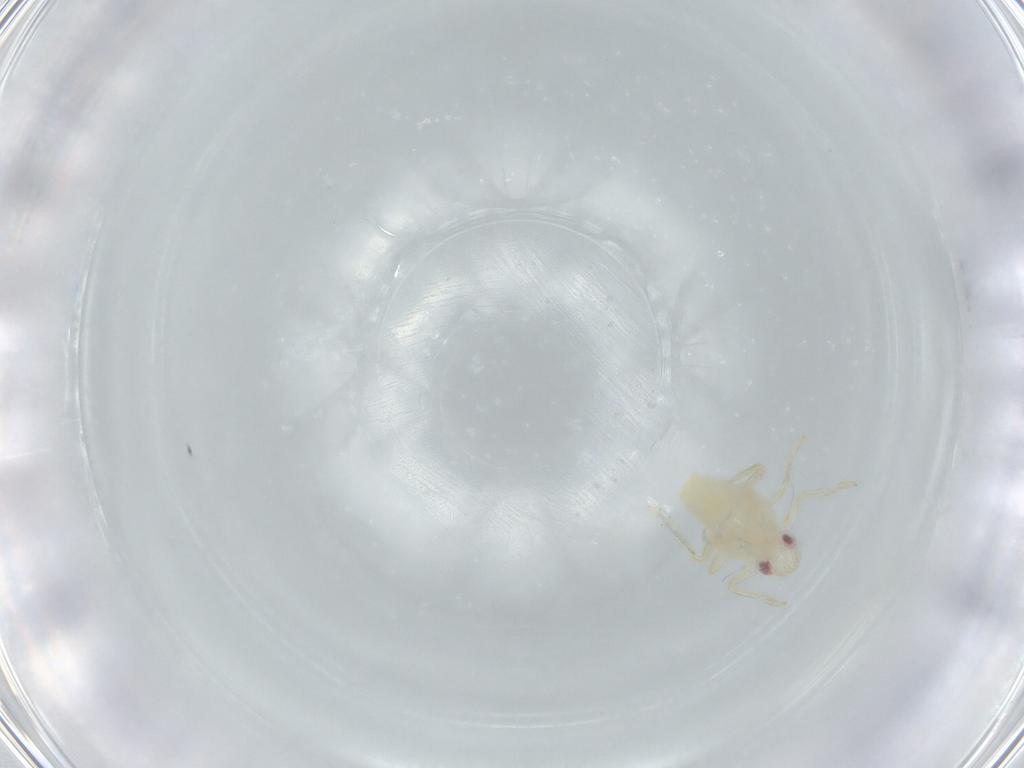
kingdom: Animalia
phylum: Arthropoda
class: Insecta
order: Hemiptera
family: Tropiduchidae
